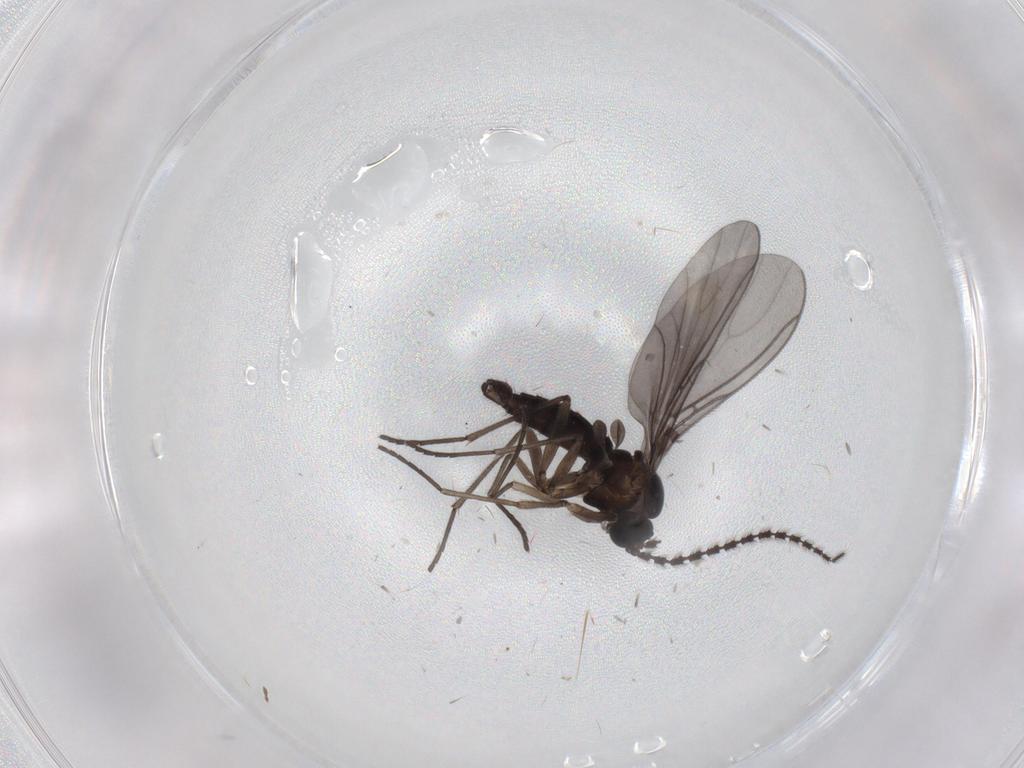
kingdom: Animalia
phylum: Arthropoda
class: Insecta
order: Diptera
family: Sciaridae
